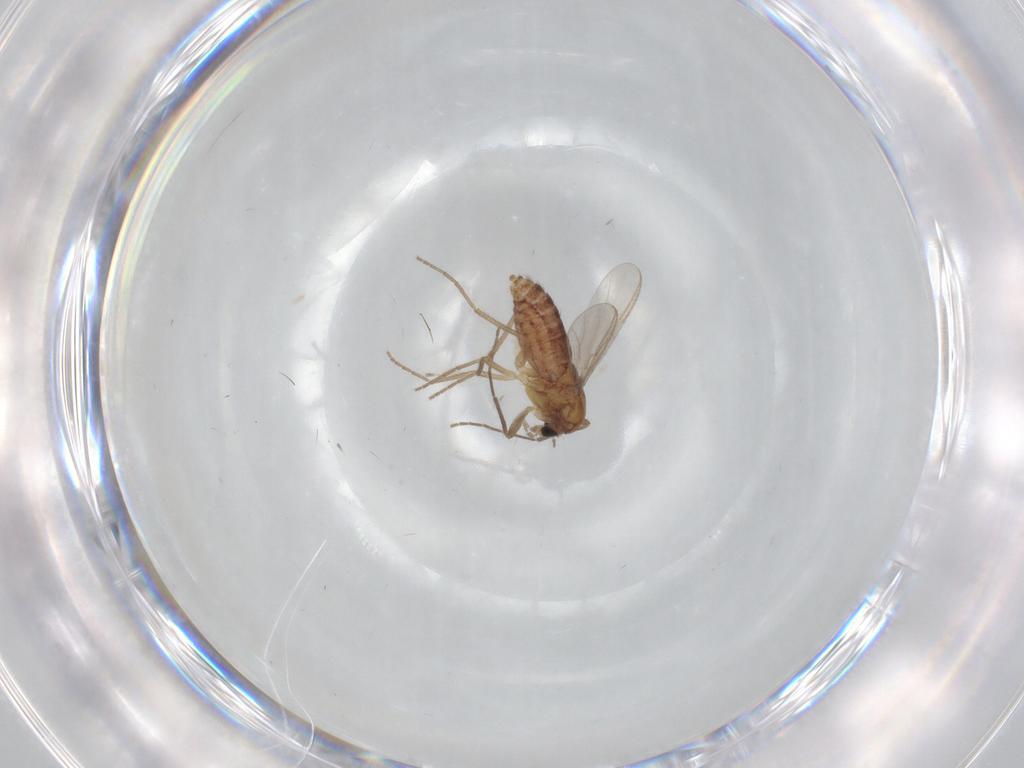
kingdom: Animalia
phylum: Arthropoda
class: Insecta
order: Diptera
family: Chironomidae
